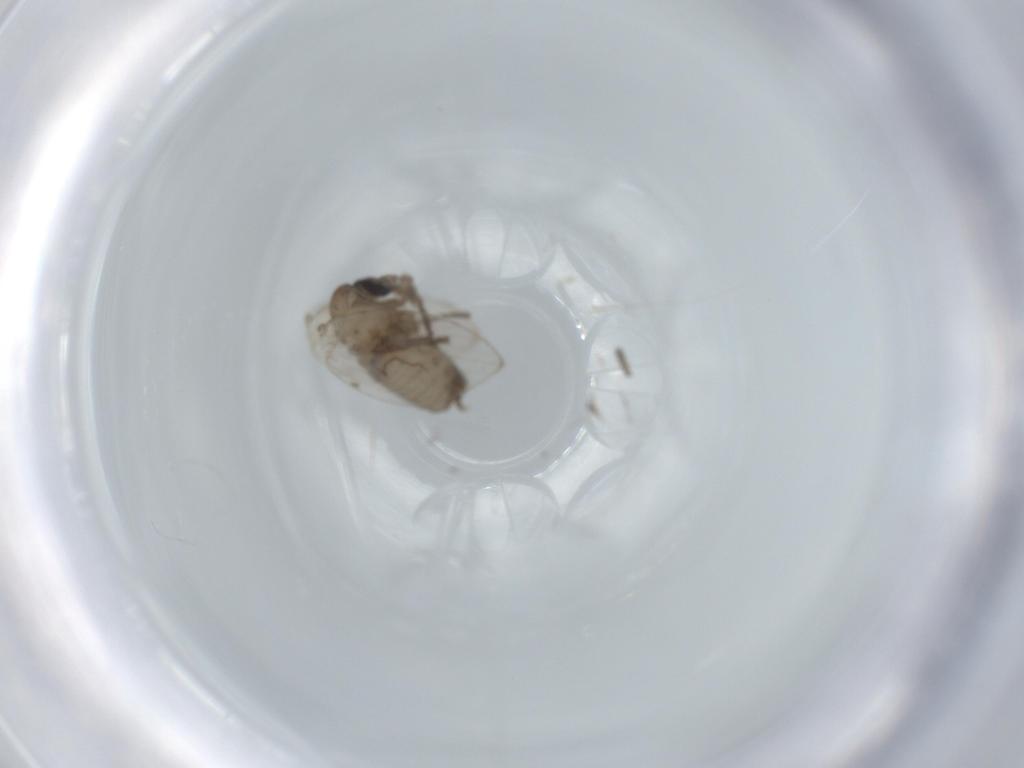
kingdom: Animalia
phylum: Arthropoda
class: Insecta
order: Diptera
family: Psychodidae
